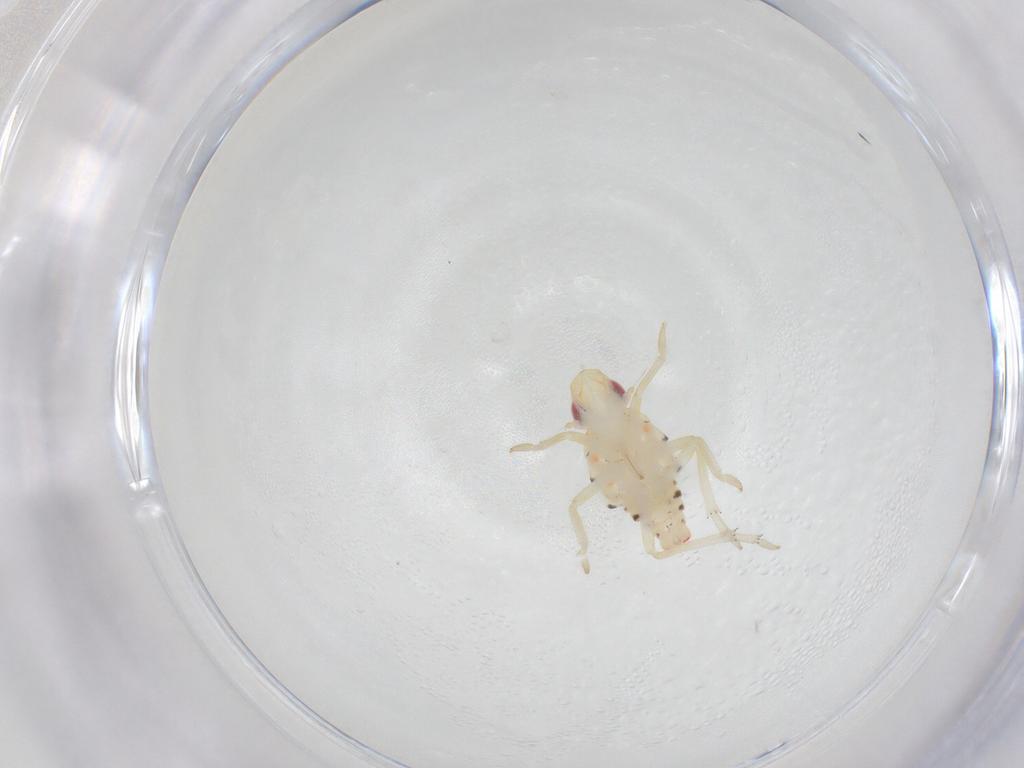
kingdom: Animalia
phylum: Arthropoda
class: Insecta
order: Hemiptera
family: Tropiduchidae
